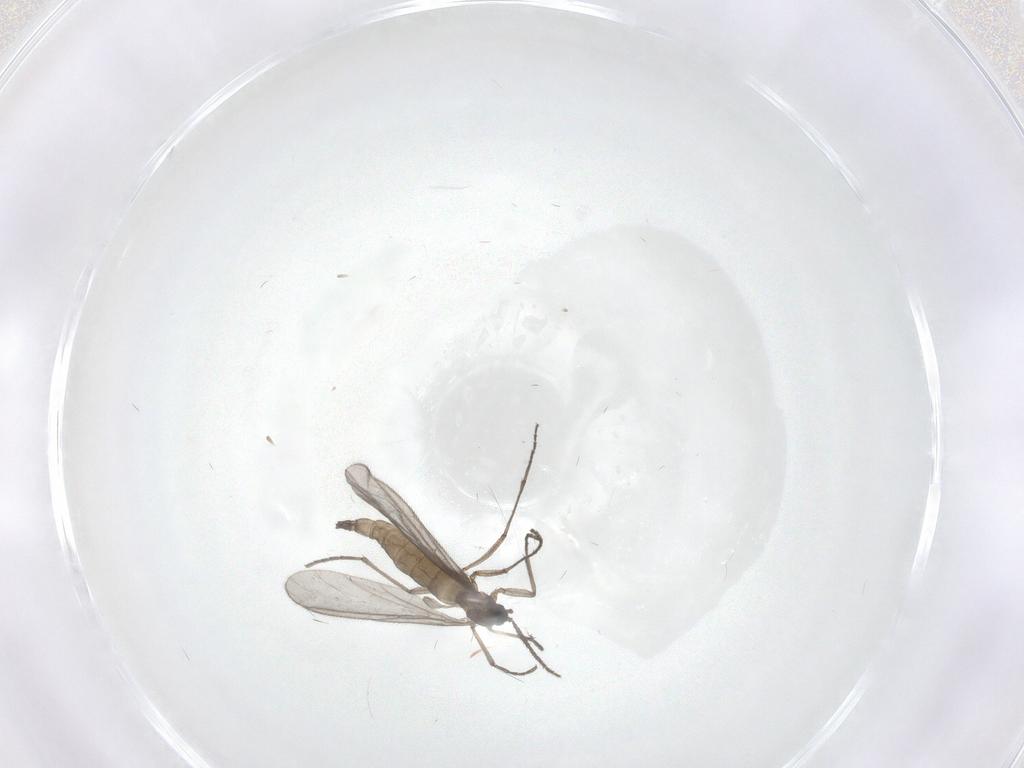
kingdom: Animalia
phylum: Arthropoda
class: Insecta
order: Diptera
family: Sciaridae
